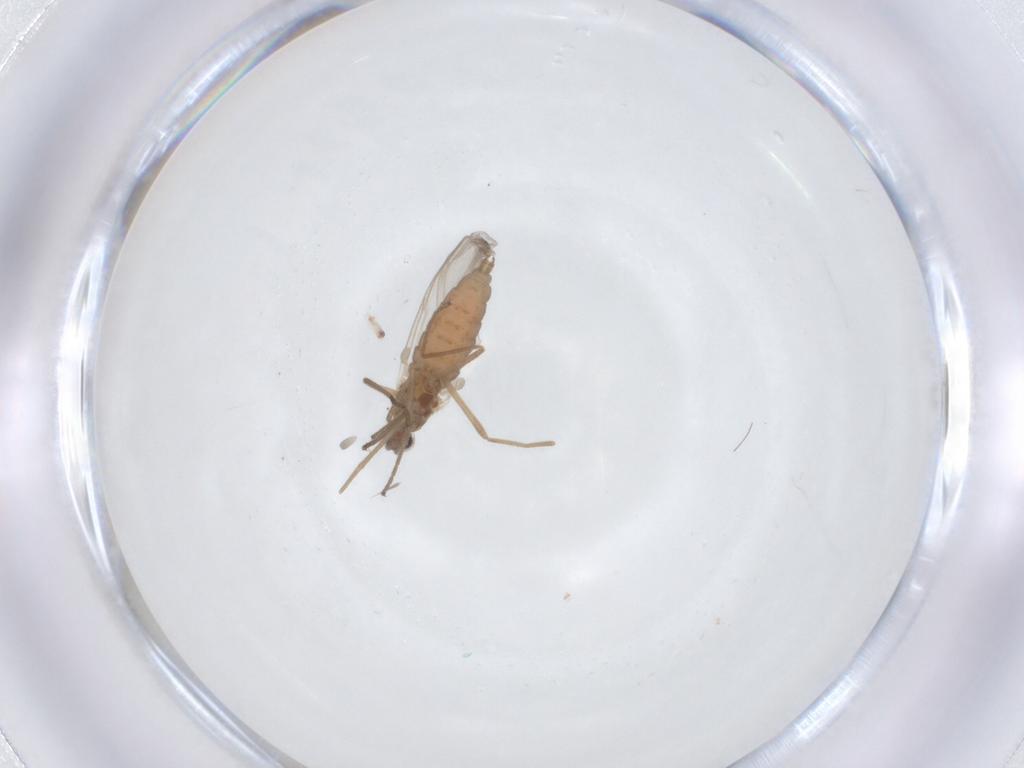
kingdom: Animalia
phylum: Arthropoda
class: Insecta
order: Diptera
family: Cecidomyiidae
